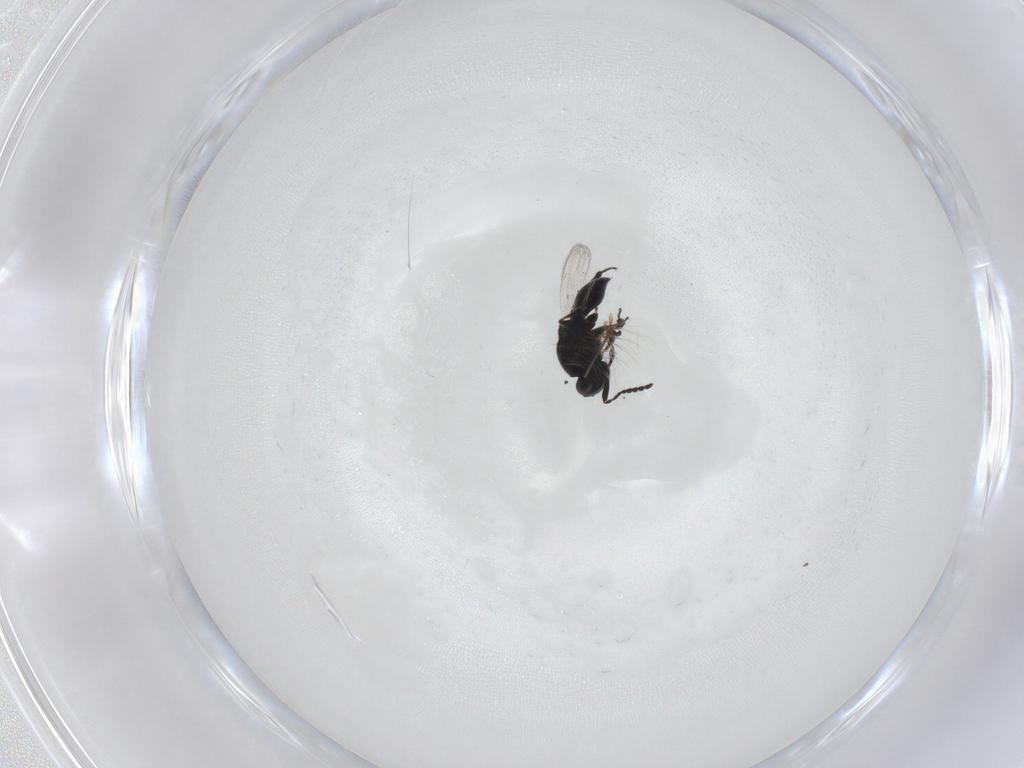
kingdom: Animalia
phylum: Arthropoda
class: Insecta
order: Hymenoptera
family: Platygastridae
